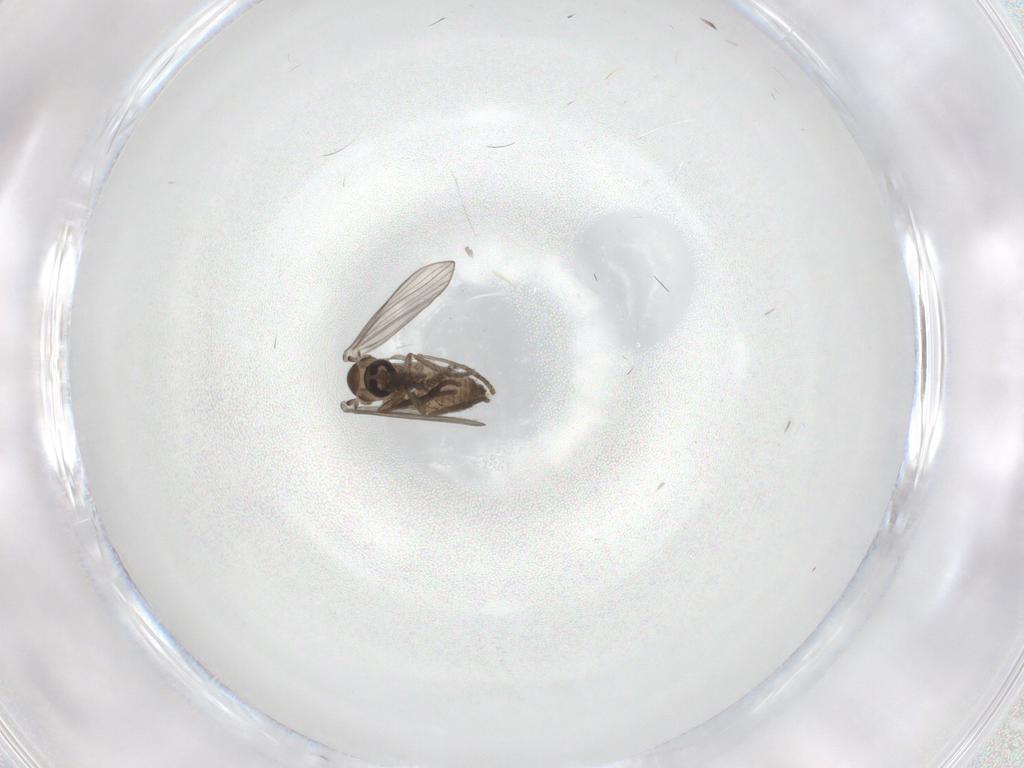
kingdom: Animalia
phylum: Arthropoda
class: Insecta
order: Diptera
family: Psychodidae
